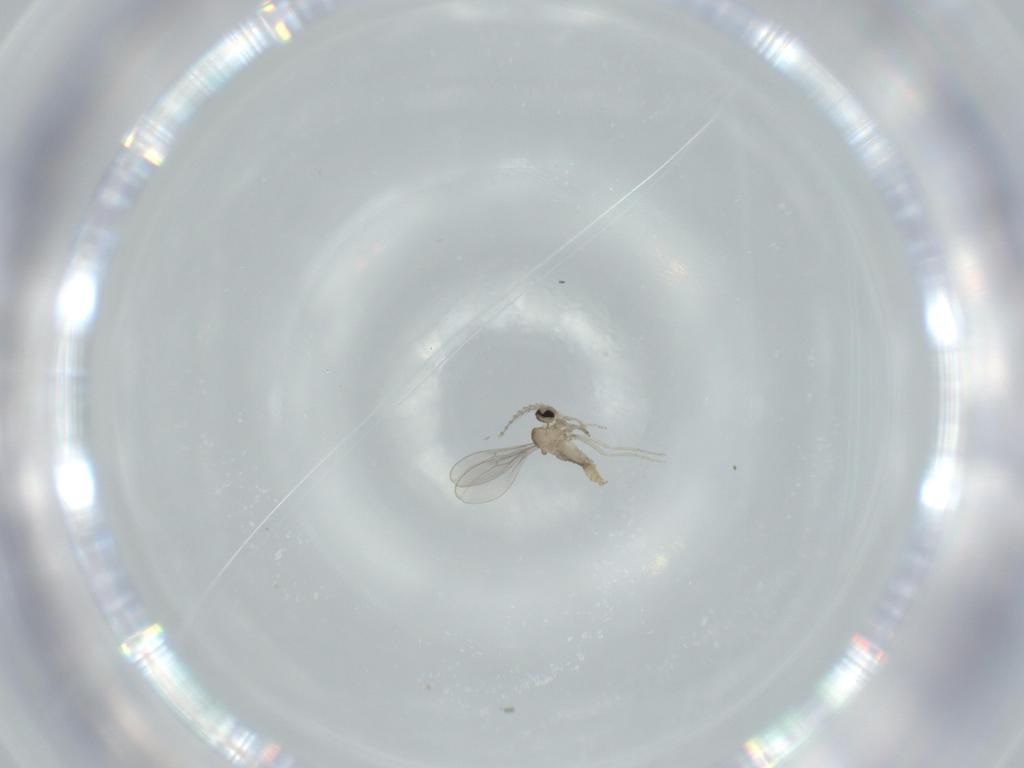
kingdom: Animalia
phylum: Arthropoda
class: Insecta
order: Diptera
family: Cecidomyiidae
